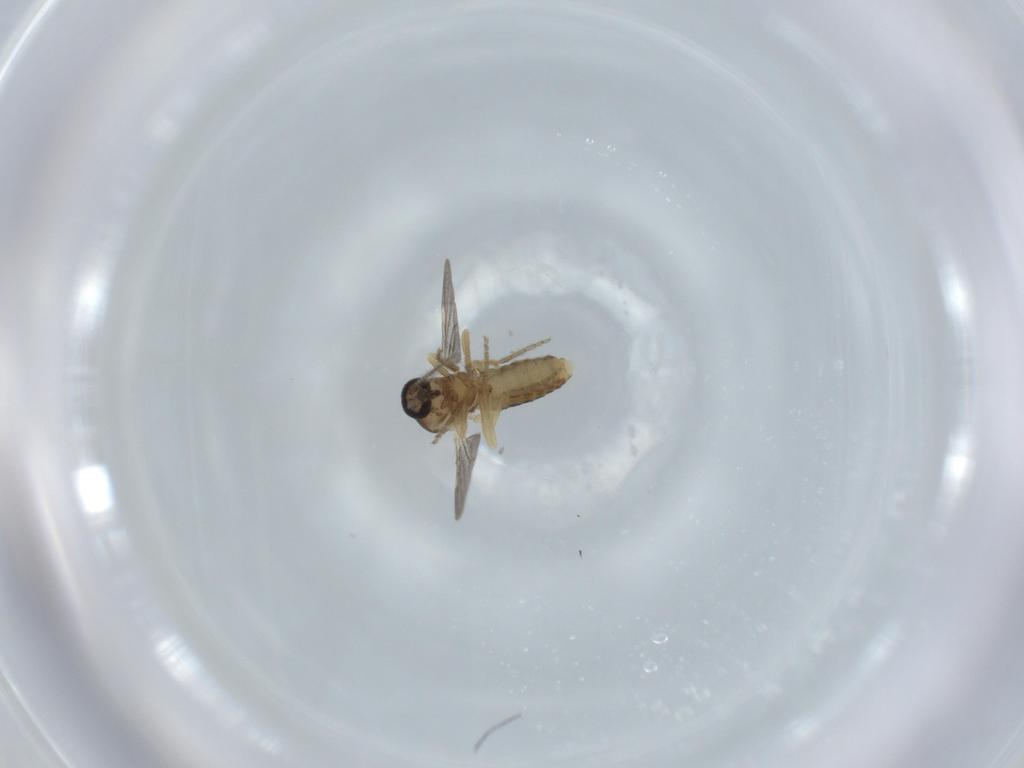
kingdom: Animalia
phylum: Arthropoda
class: Insecta
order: Diptera
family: Ceratopogonidae
